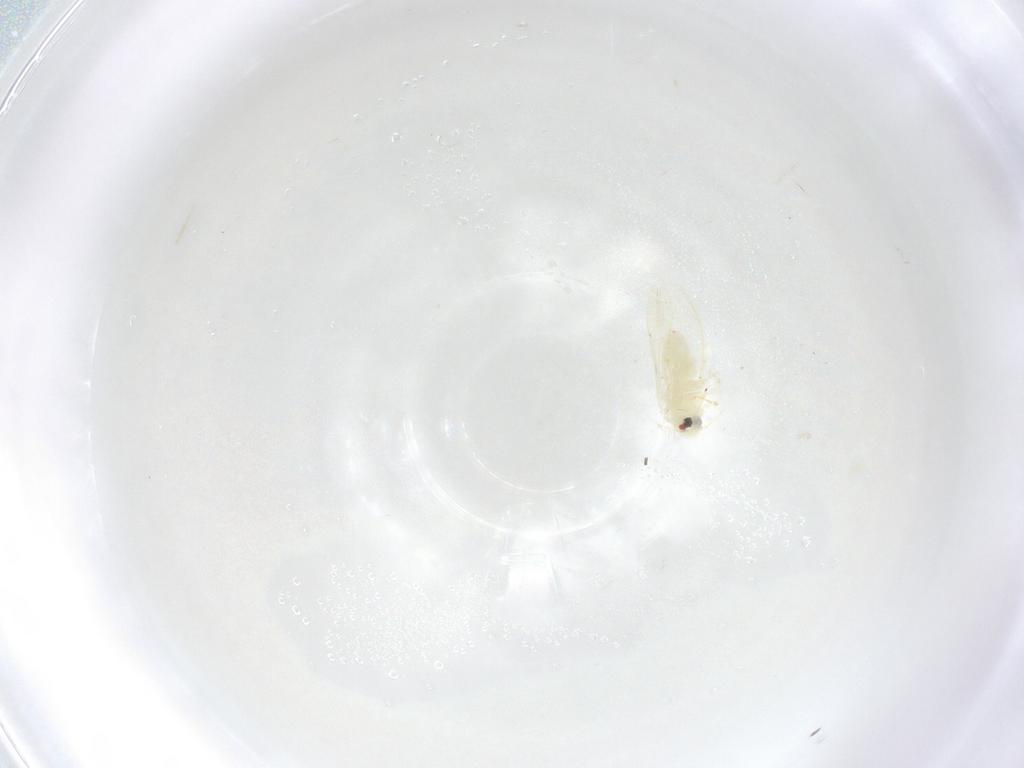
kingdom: Animalia
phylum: Arthropoda
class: Insecta
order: Hemiptera
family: Aleyrodidae
